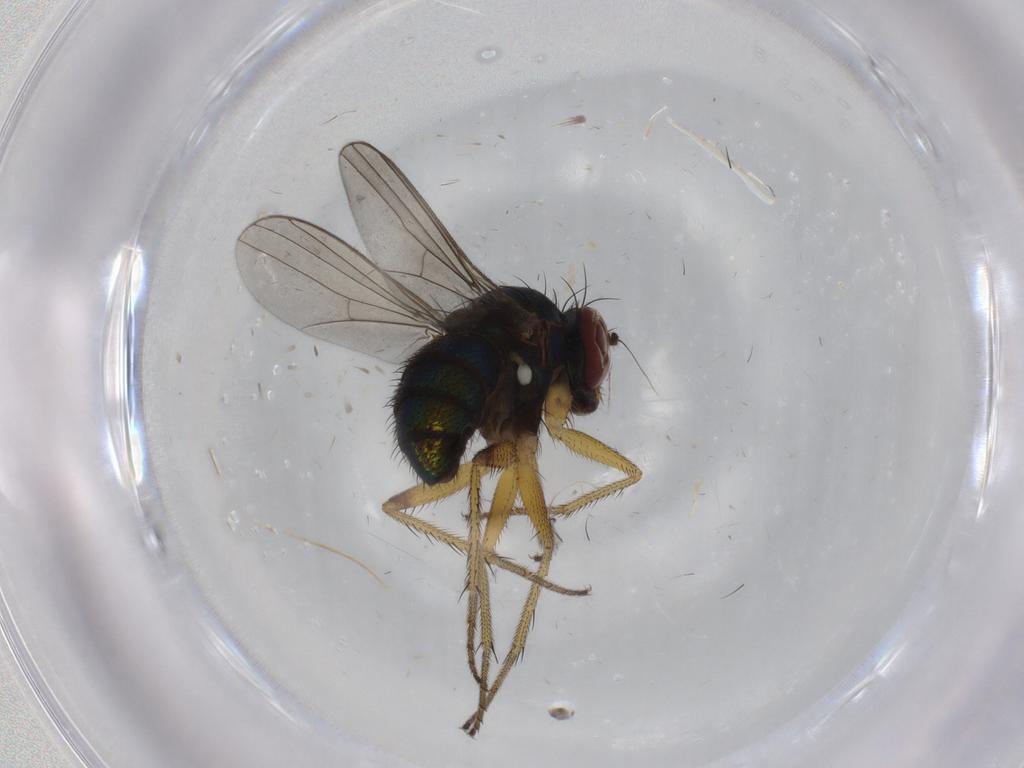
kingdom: Animalia
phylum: Arthropoda
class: Insecta
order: Diptera
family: Dolichopodidae
